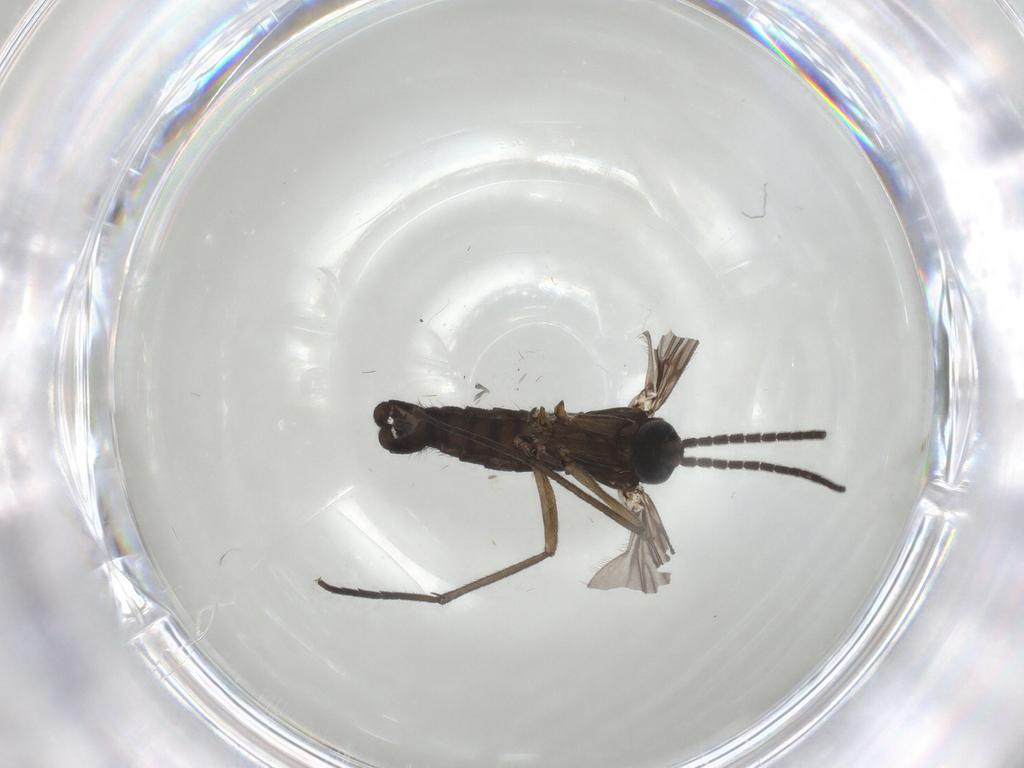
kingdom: Animalia
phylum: Arthropoda
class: Insecta
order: Diptera
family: Sciaridae
